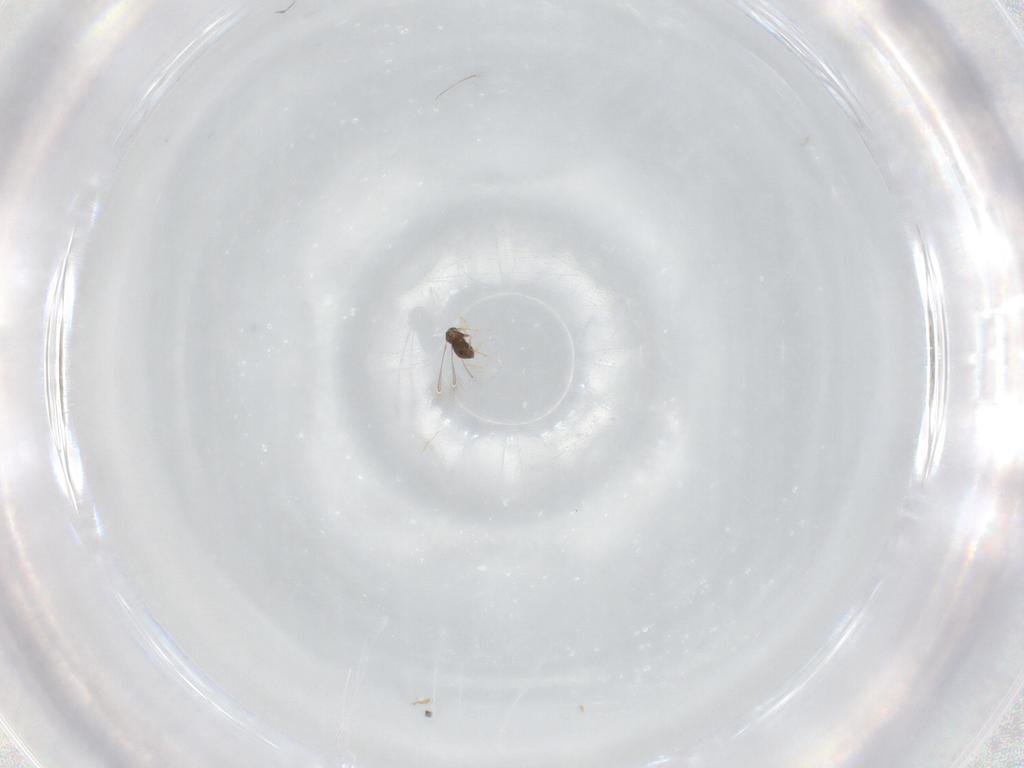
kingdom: Animalia
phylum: Arthropoda
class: Insecta
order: Hymenoptera
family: Mymaridae
